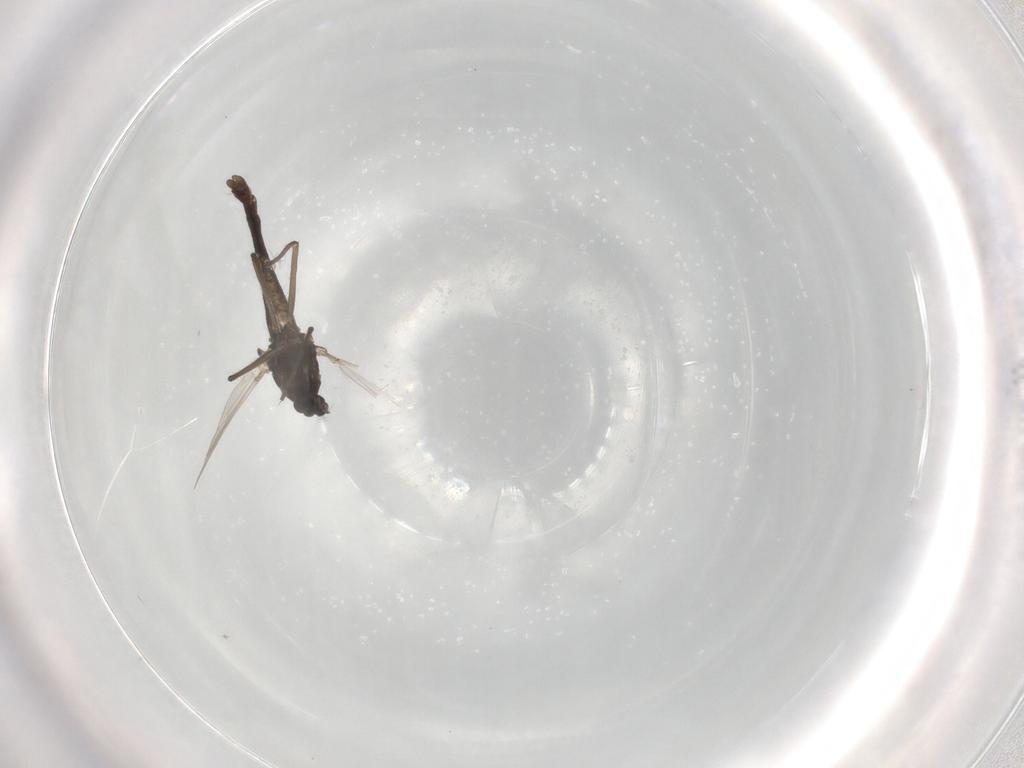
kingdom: Animalia
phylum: Arthropoda
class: Insecta
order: Diptera
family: Chironomidae
